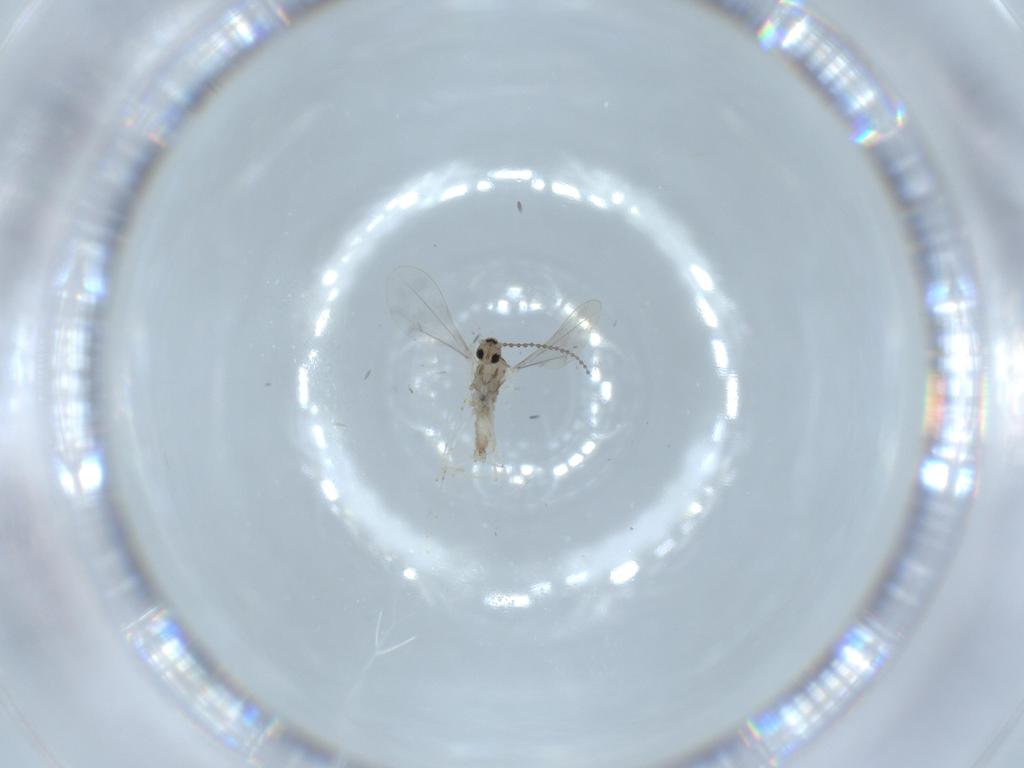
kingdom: Animalia
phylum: Arthropoda
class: Insecta
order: Diptera
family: Cecidomyiidae
